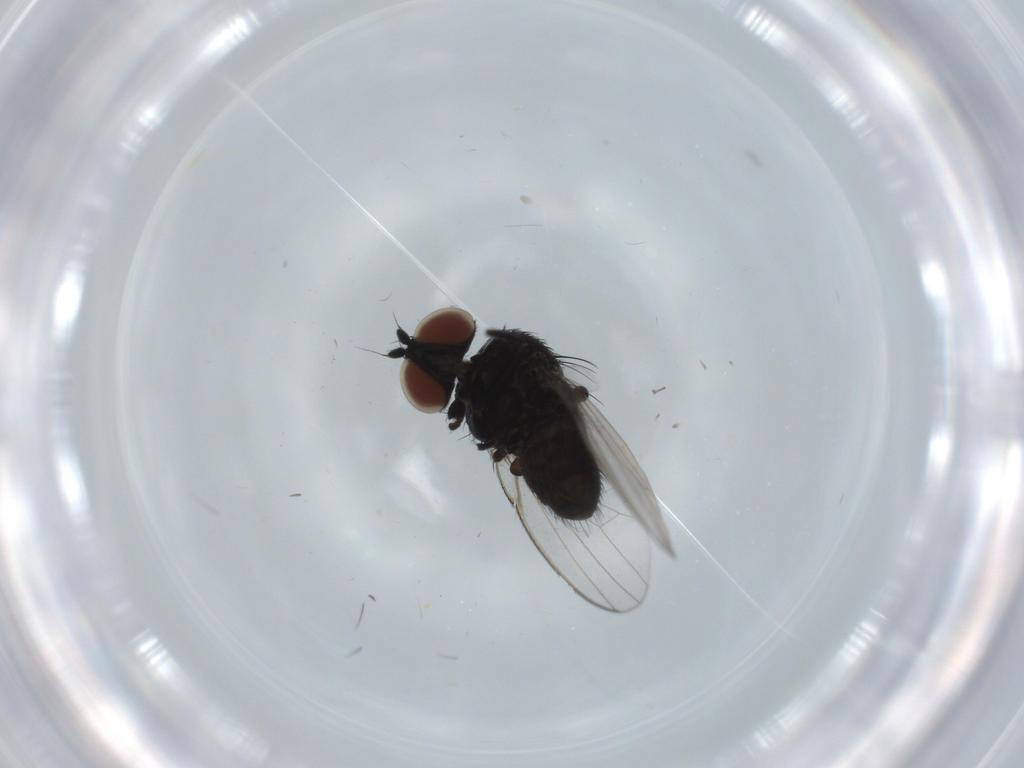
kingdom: Animalia
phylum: Arthropoda
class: Insecta
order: Diptera
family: Milichiidae
